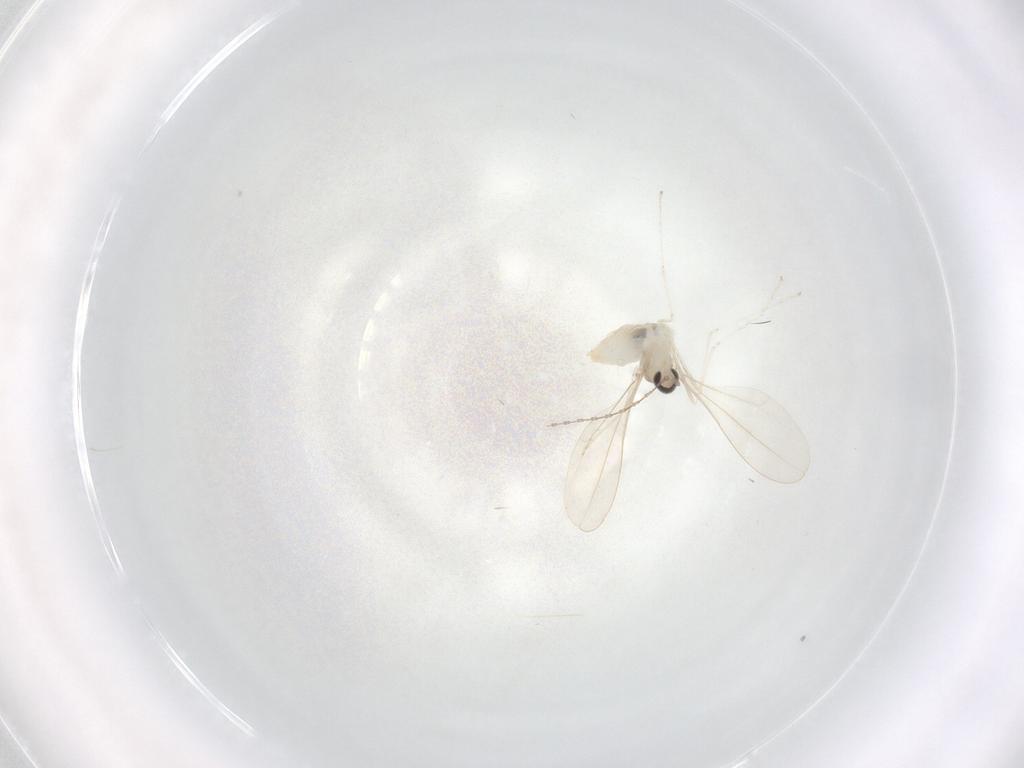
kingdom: Animalia
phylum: Arthropoda
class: Insecta
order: Diptera
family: Cecidomyiidae
